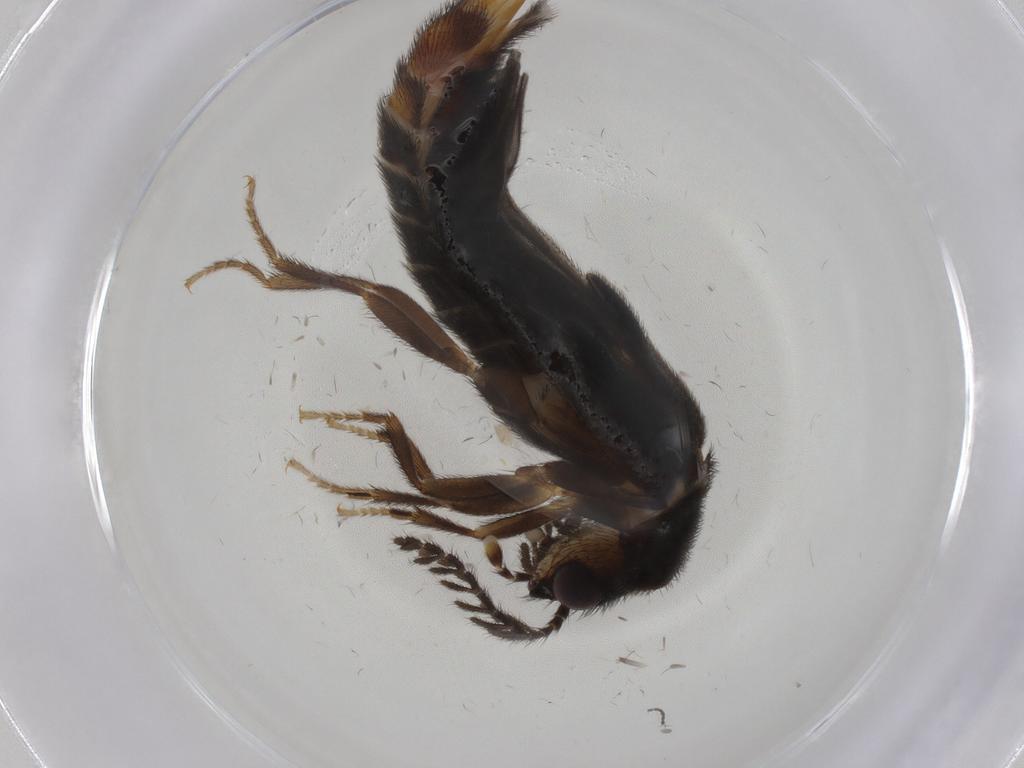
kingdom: Animalia
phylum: Arthropoda
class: Insecta
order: Coleoptera
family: Phengodidae
